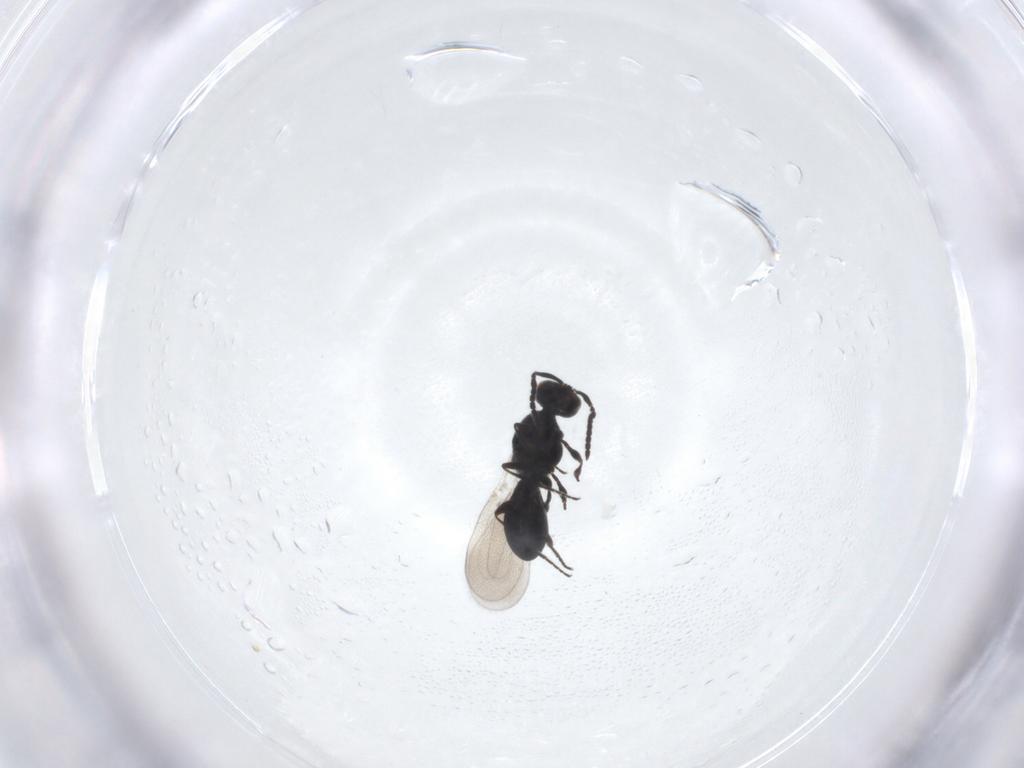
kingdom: Animalia
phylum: Arthropoda
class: Insecta
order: Hymenoptera
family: Platygastridae
